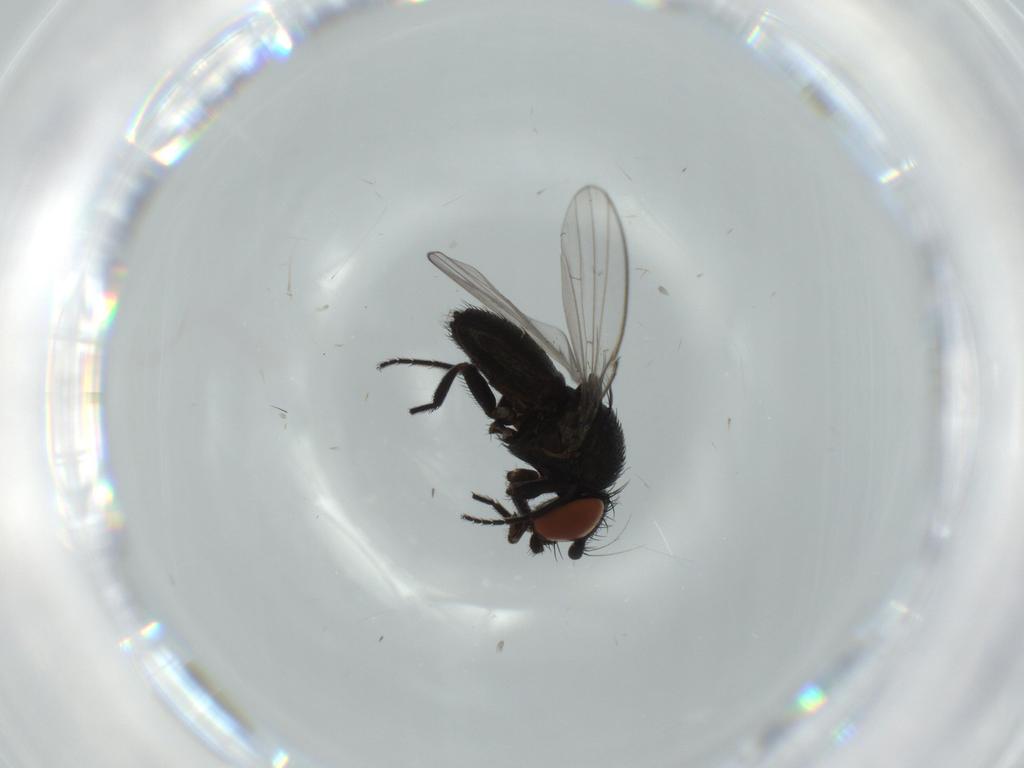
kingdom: Animalia
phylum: Arthropoda
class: Insecta
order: Diptera
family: Milichiidae
